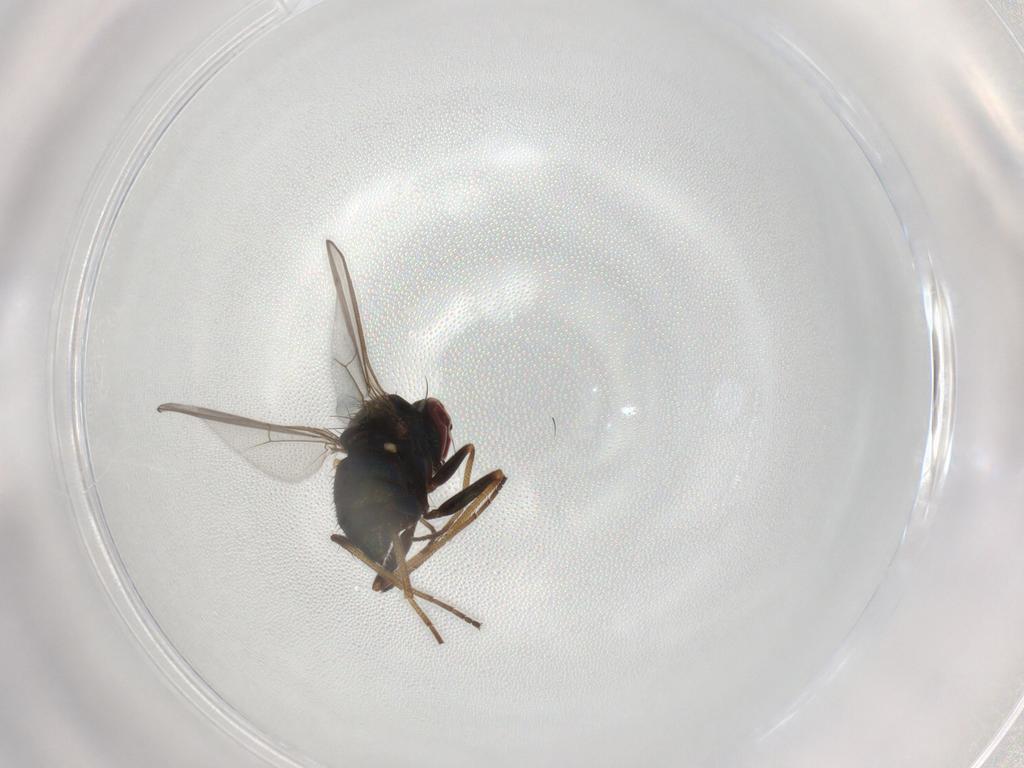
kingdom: Animalia
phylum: Arthropoda
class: Insecta
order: Diptera
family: Dolichopodidae
